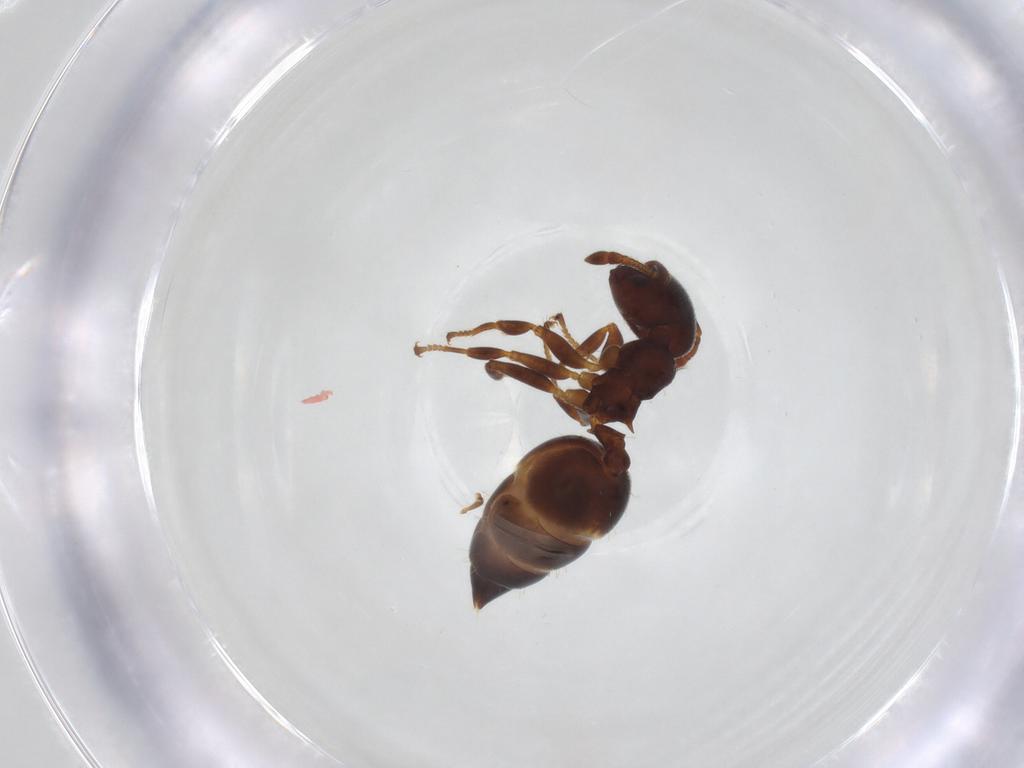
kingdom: Animalia
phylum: Arthropoda
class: Insecta
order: Hymenoptera
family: Formicidae
